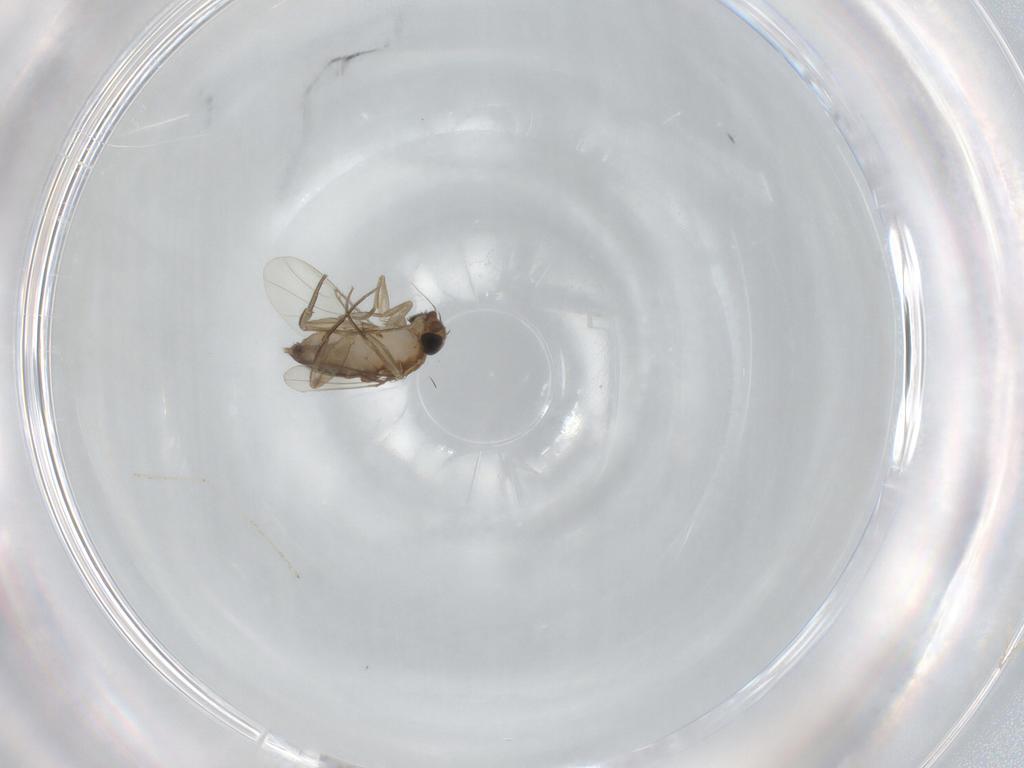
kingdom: Animalia
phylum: Arthropoda
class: Insecta
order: Diptera
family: Phoridae
